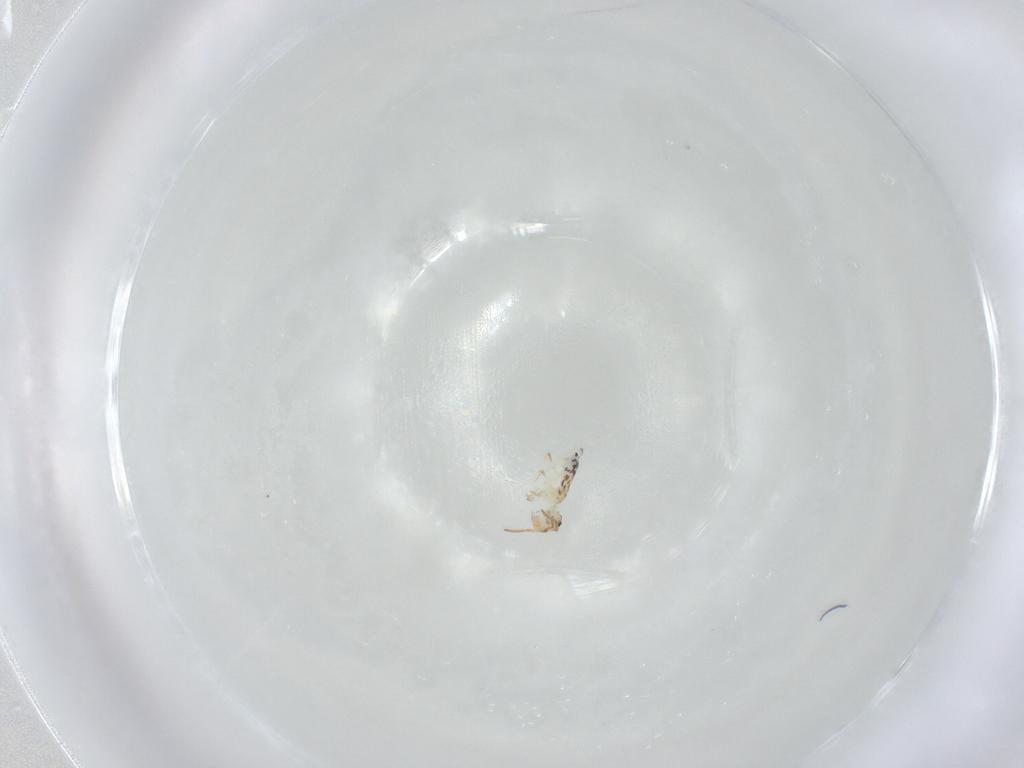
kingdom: Animalia
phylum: Arthropoda
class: Collembola
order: Symphypleona
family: Bourletiellidae
